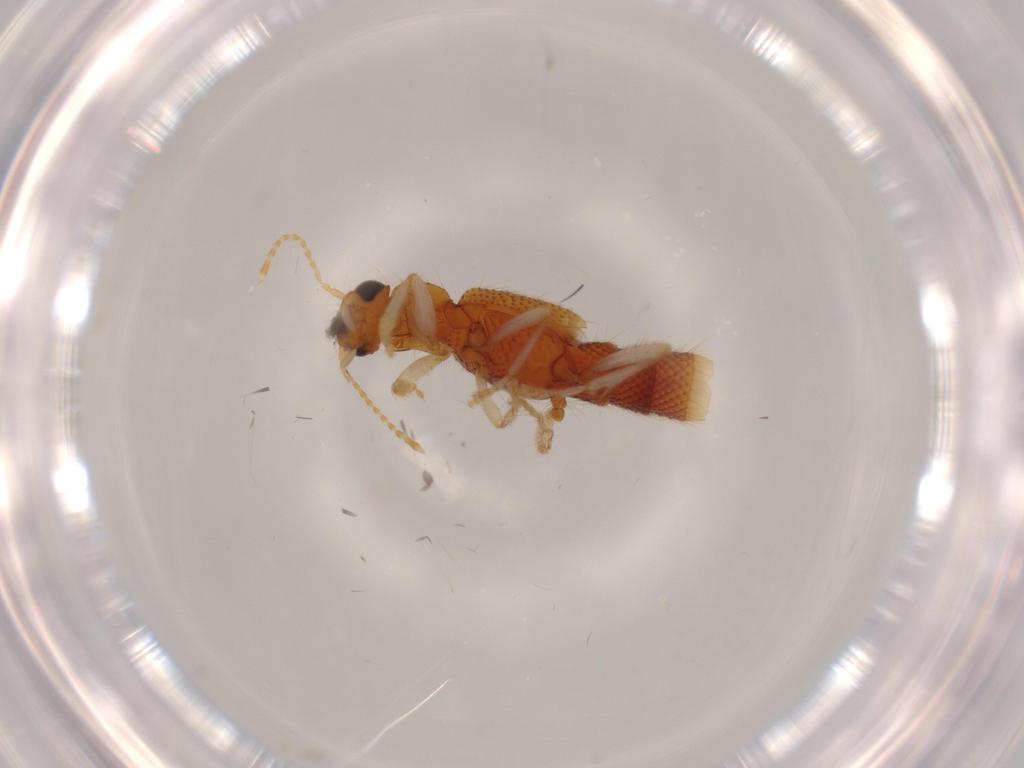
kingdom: Animalia
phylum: Arthropoda
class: Insecta
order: Coleoptera
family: Staphylinidae
